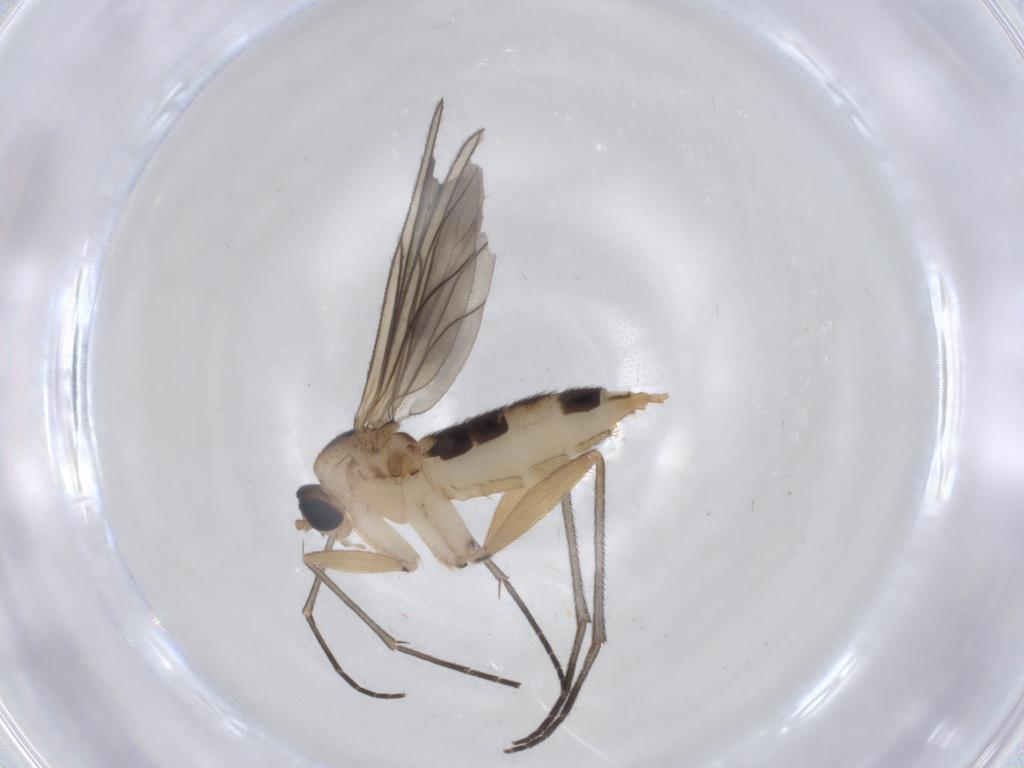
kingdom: Animalia
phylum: Arthropoda
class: Insecta
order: Diptera
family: Sciaridae
